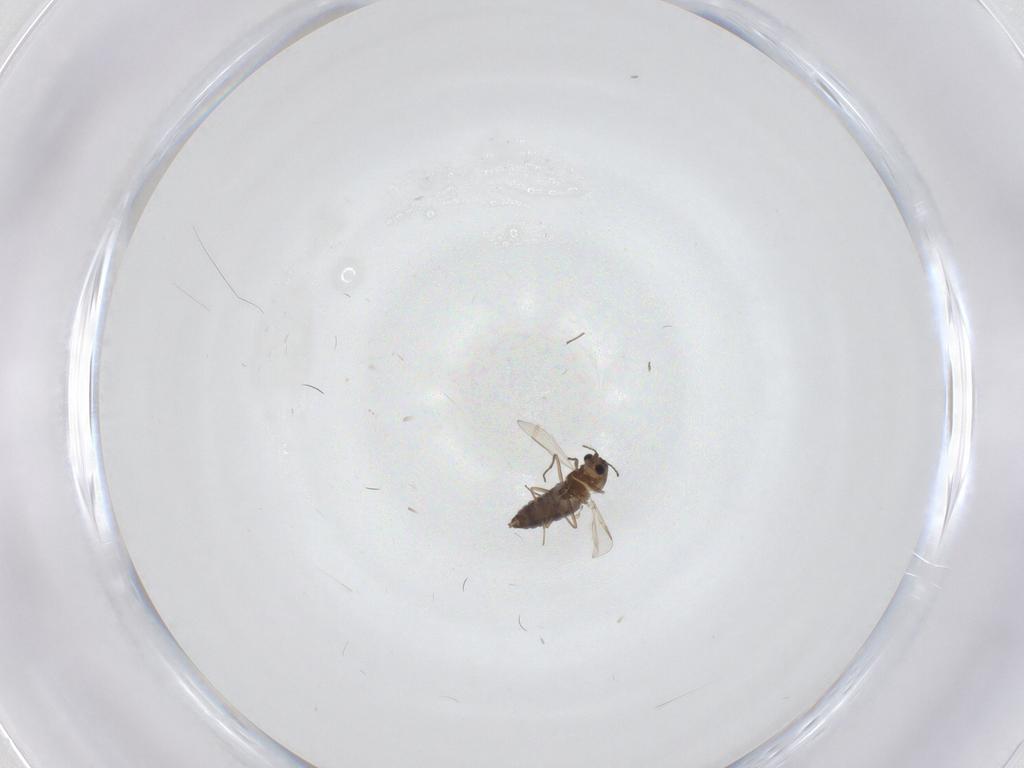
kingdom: Animalia
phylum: Arthropoda
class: Insecta
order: Diptera
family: Chironomidae
